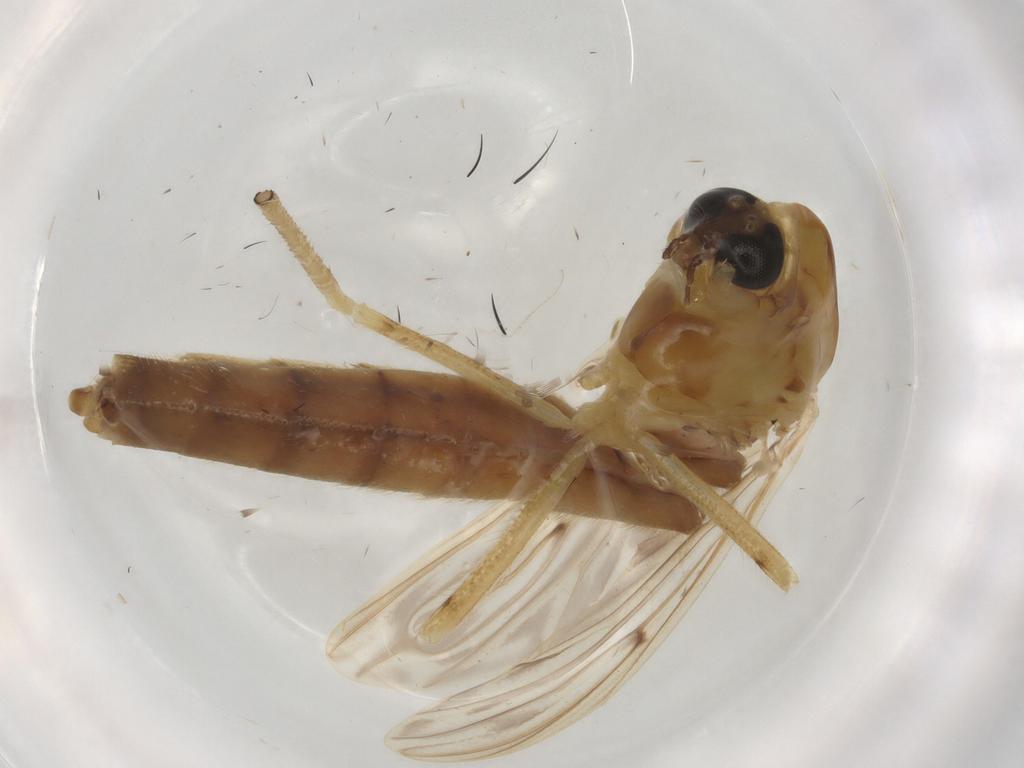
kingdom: Animalia
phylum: Arthropoda
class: Insecta
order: Diptera
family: Chironomidae
